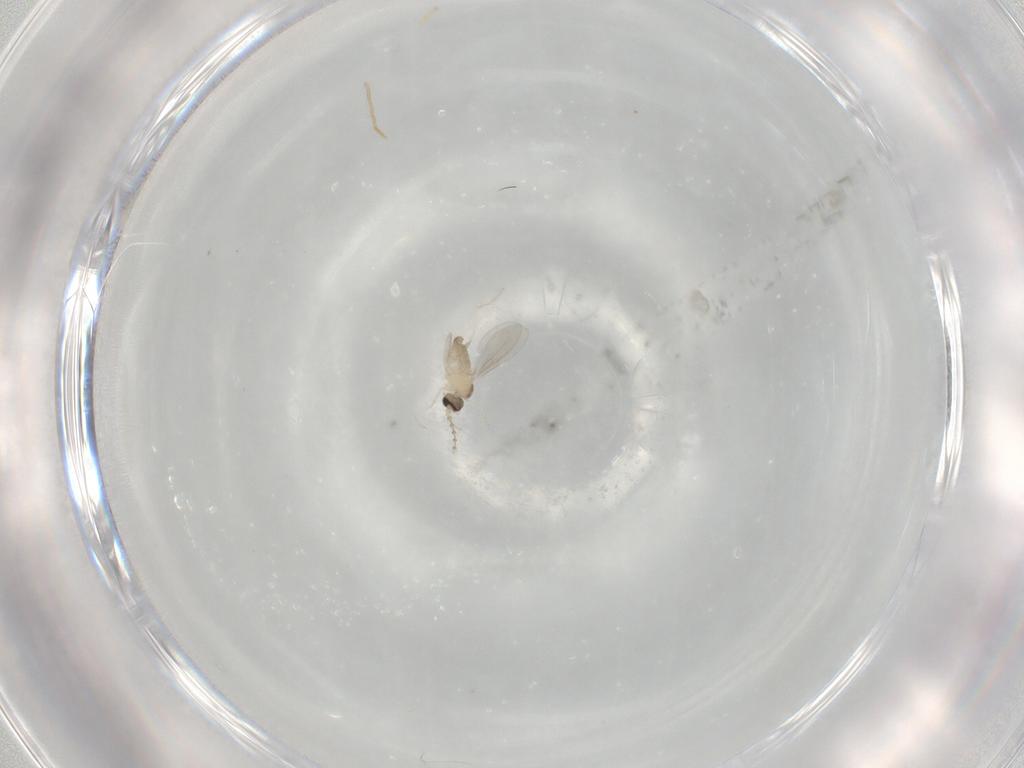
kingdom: Animalia
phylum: Arthropoda
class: Insecta
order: Diptera
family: Cecidomyiidae
